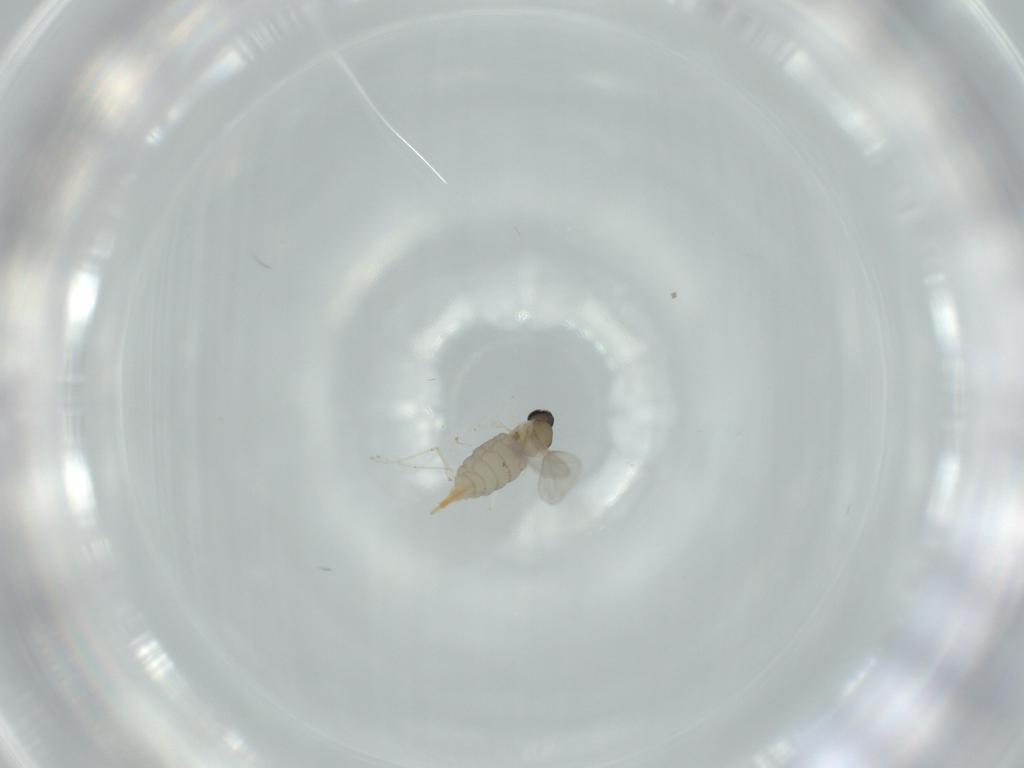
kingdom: Animalia
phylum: Arthropoda
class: Insecta
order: Diptera
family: Cecidomyiidae
